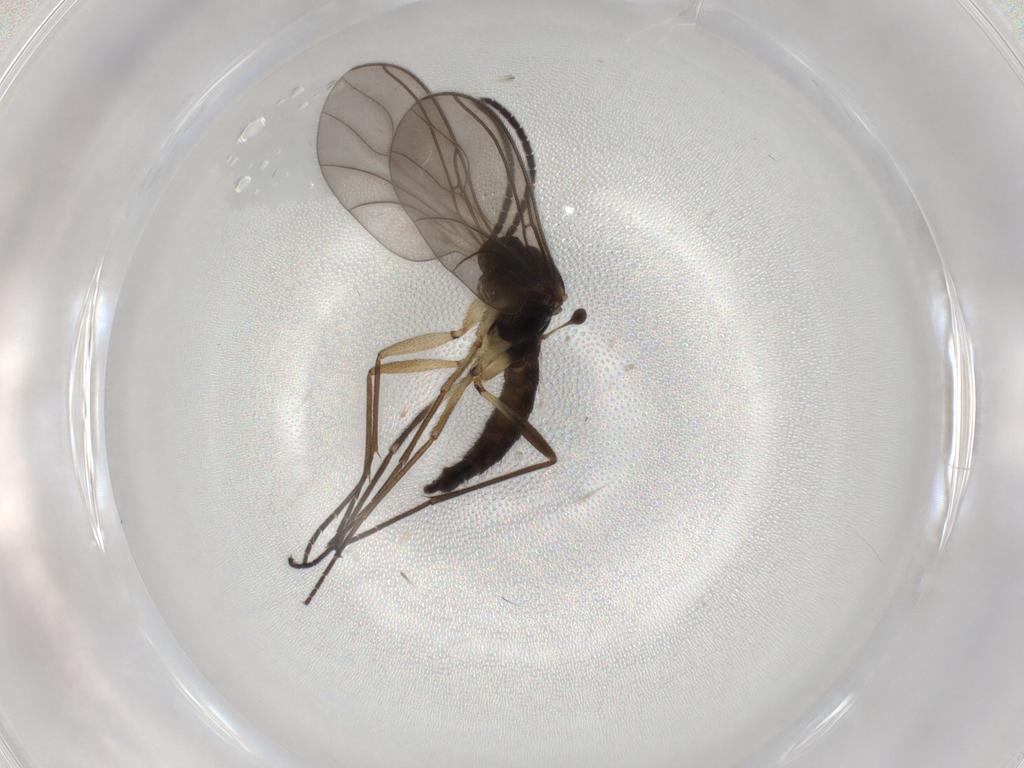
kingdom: Animalia
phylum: Arthropoda
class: Insecta
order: Diptera
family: Sciaridae
